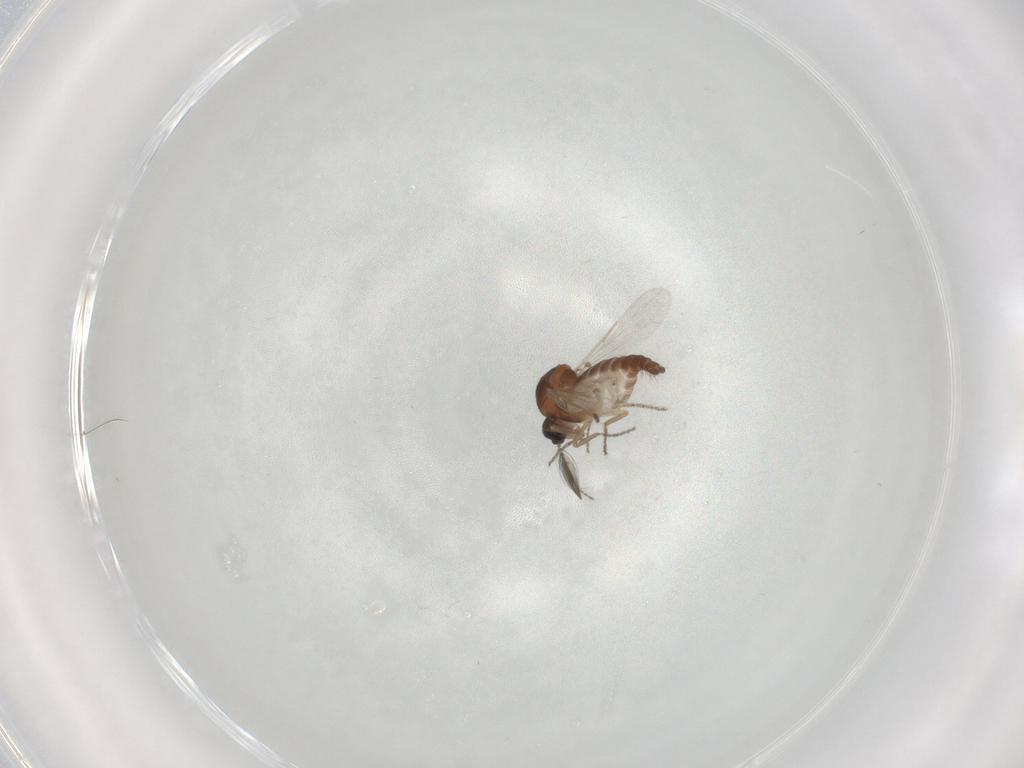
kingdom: Animalia
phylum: Arthropoda
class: Insecta
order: Diptera
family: Ceratopogonidae
